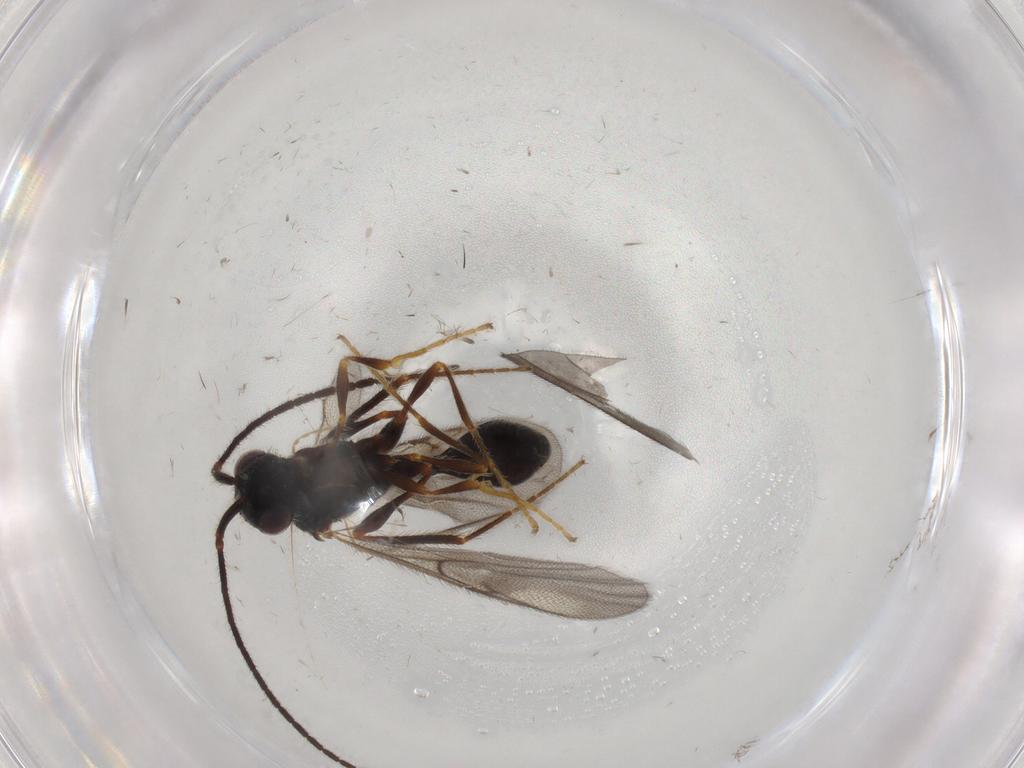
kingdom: Animalia
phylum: Arthropoda
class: Insecta
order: Hymenoptera
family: Diapriidae
